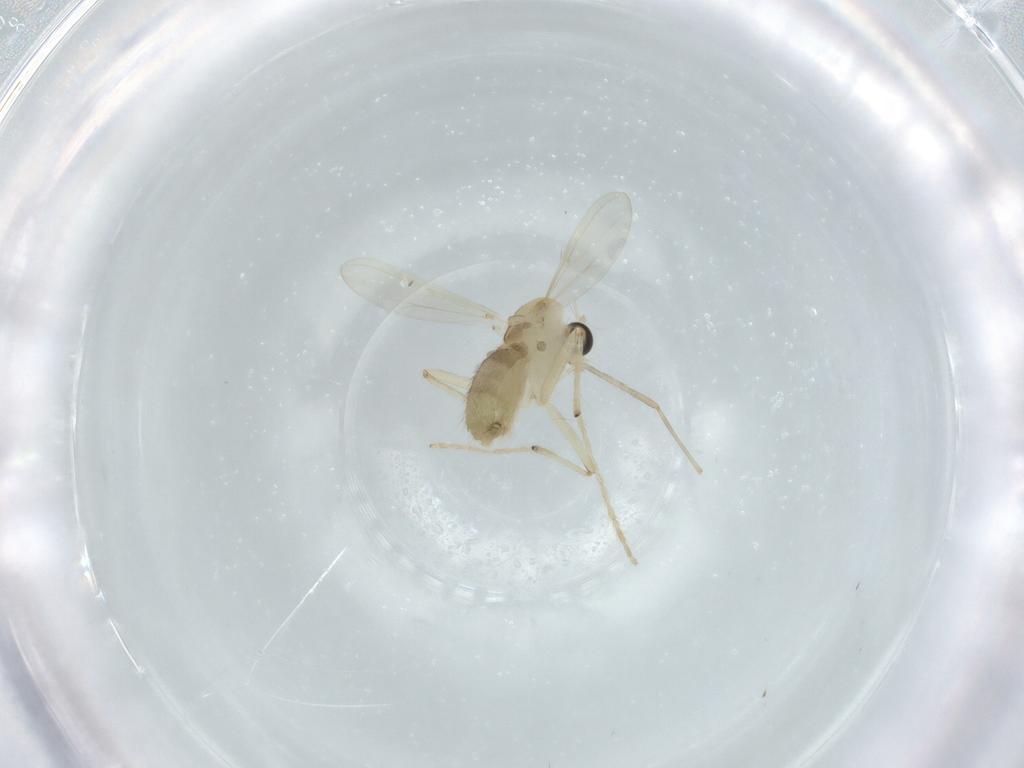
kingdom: Animalia
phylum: Arthropoda
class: Insecta
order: Diptera
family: Chironomidae
